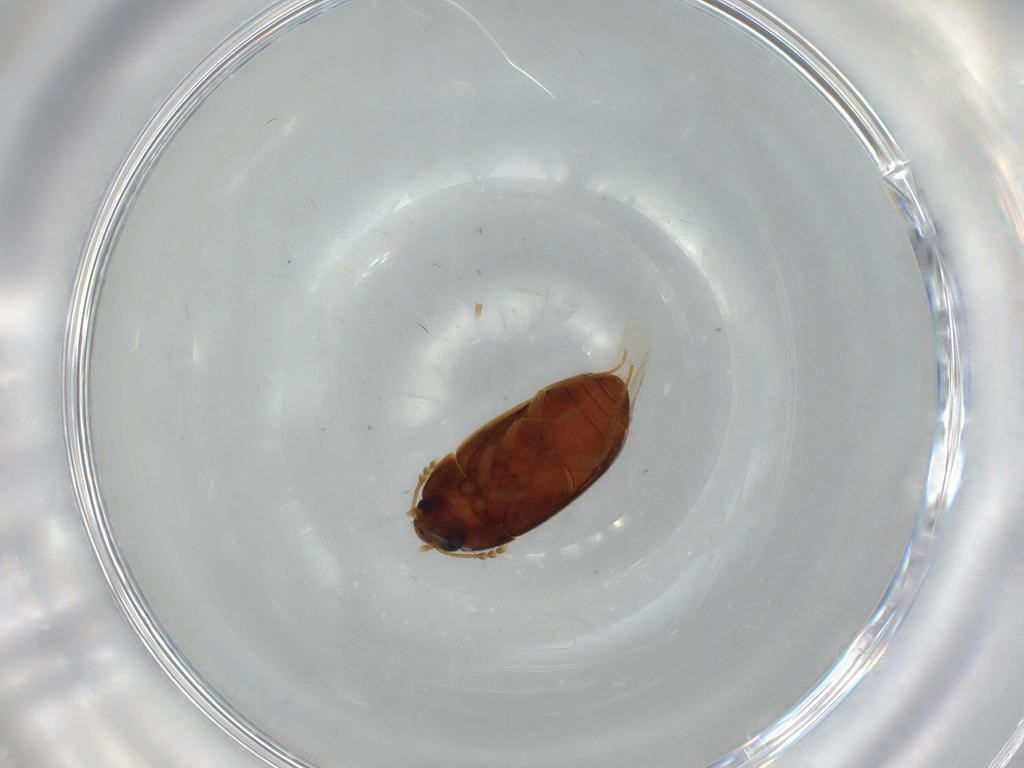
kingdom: Animalia
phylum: Arthropoda
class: Insecta
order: Coleoptera
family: Mycetophagidae
